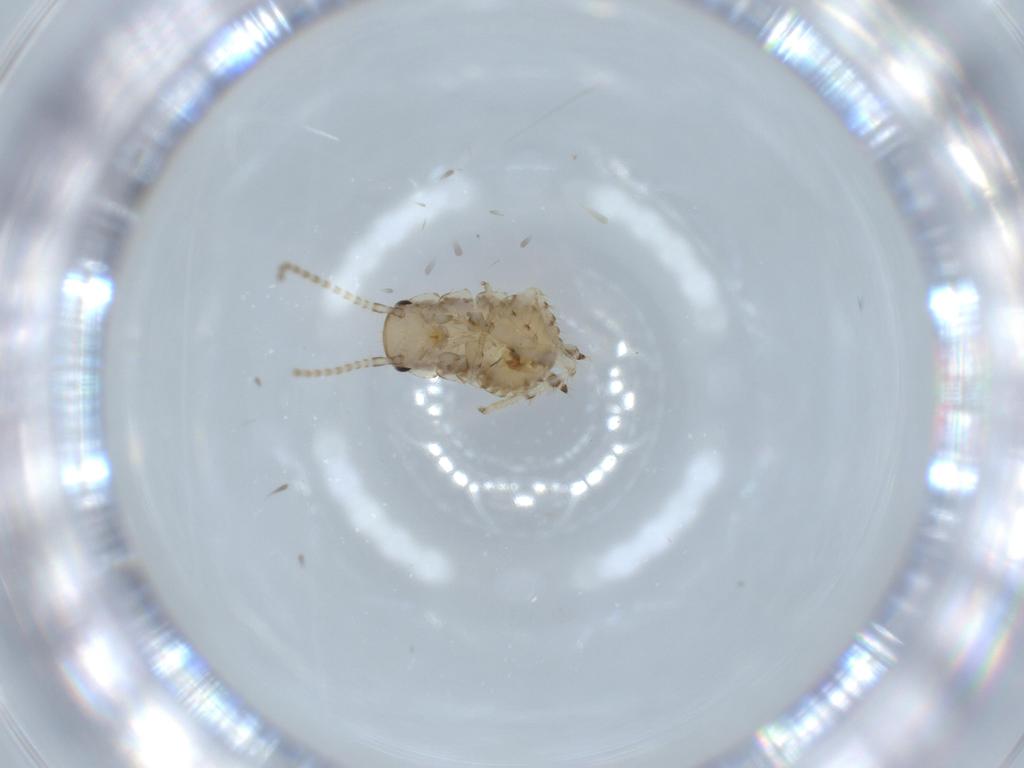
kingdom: Animalia
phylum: Arthropoda
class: Insecta
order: Blattodea
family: Ectobiidae
